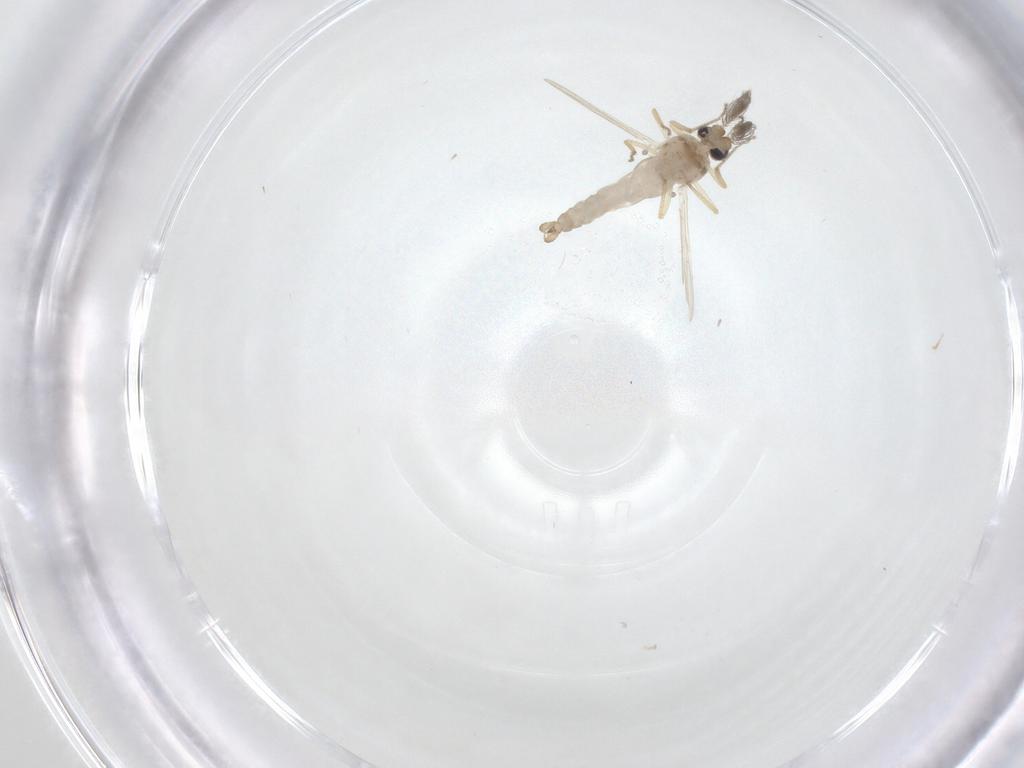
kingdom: Animalia
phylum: Arthropoda
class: Insecta
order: Diptera
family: Ceratopogonidae
